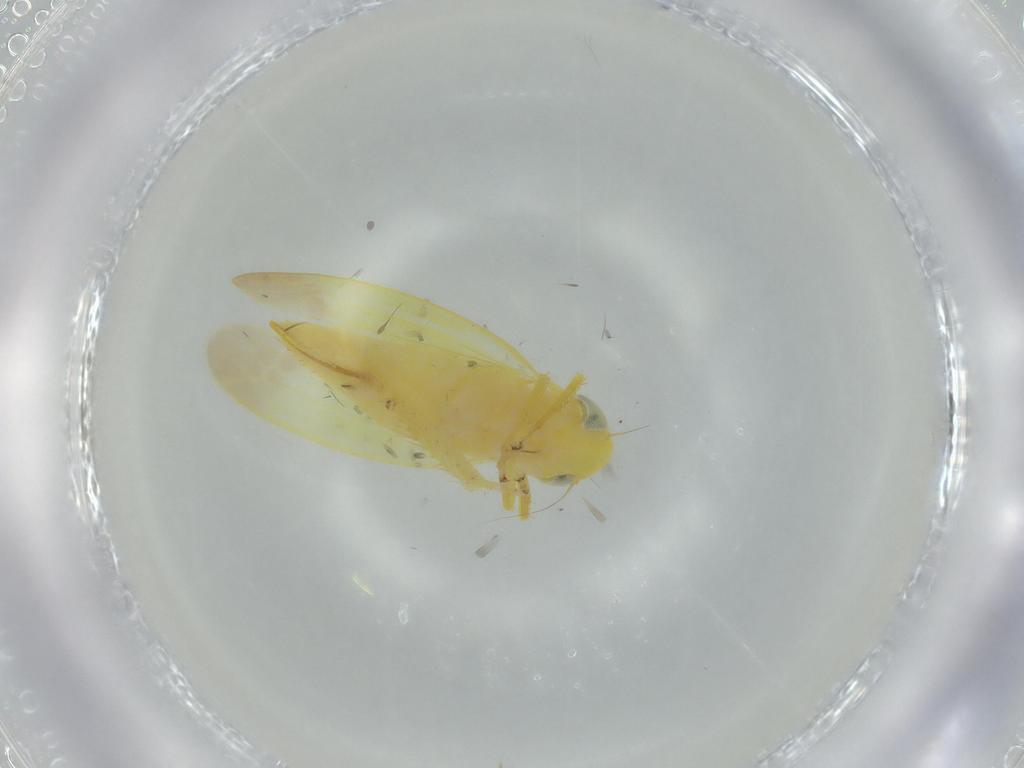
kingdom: Animalia
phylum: Arthropoda
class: Insecta
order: Hemiptera
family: Cicadellidae
